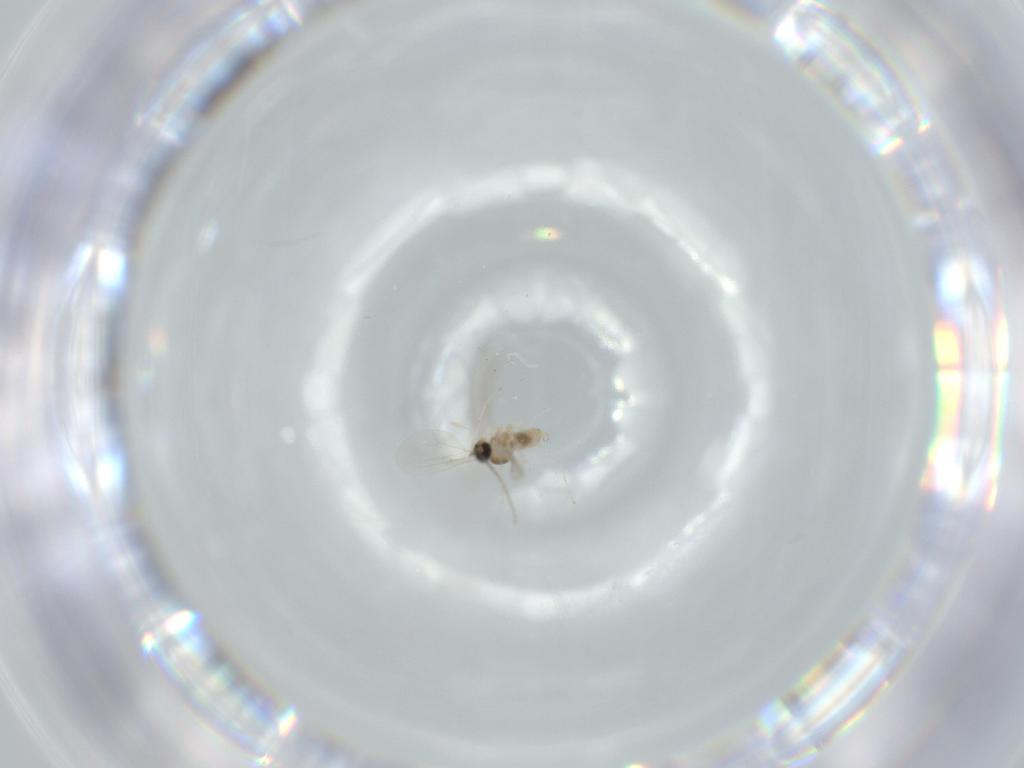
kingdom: Animalia
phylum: Arthropoda
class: Insecta
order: Diptera
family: Cecidomyiidae
